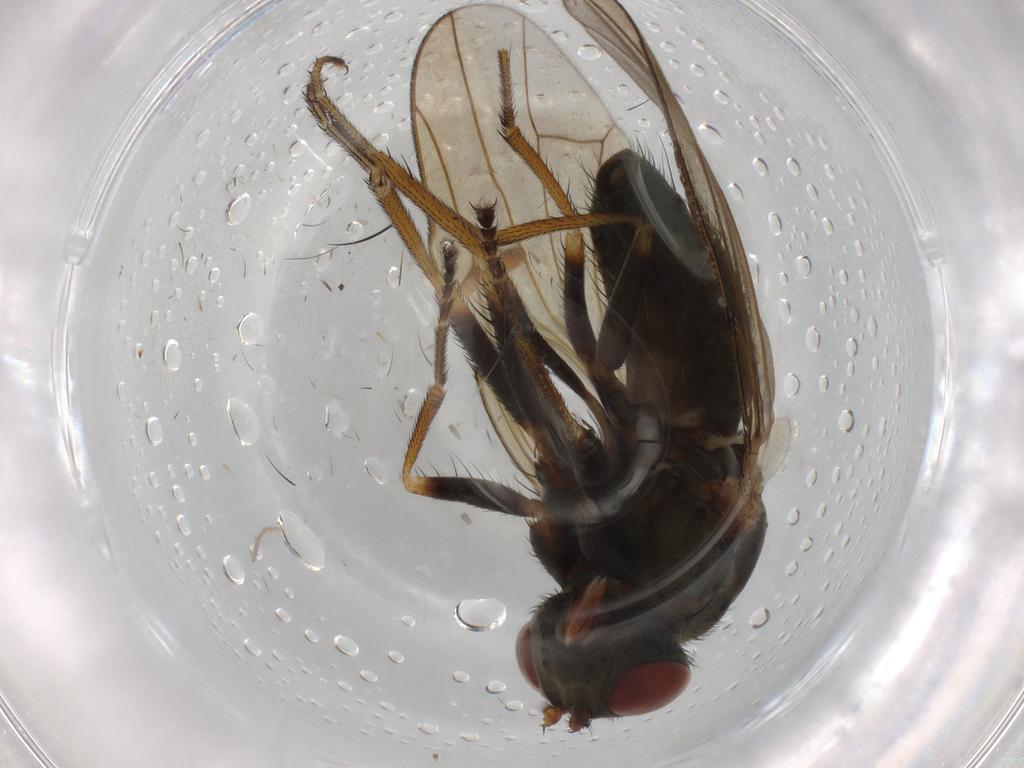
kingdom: Animalia
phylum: Arthropoda
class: Insecta
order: Diptera
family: Ephydridae
